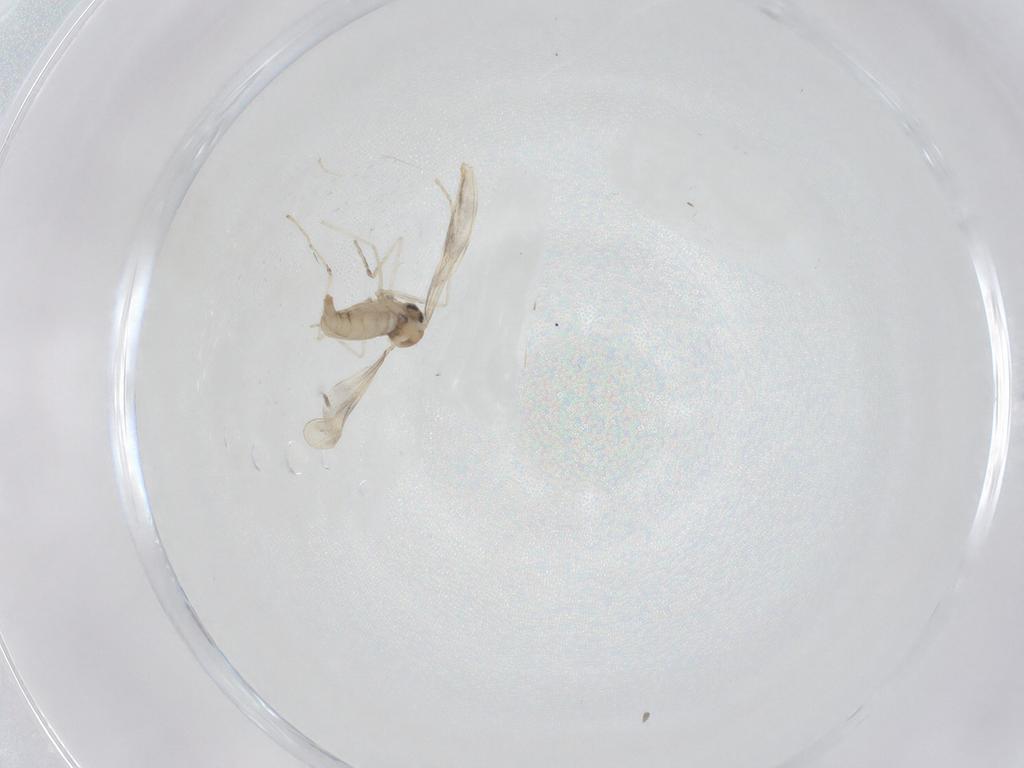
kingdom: Animalia
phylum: Arthropoda
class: Insecta
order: Diptera
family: Cecidomyiidae
